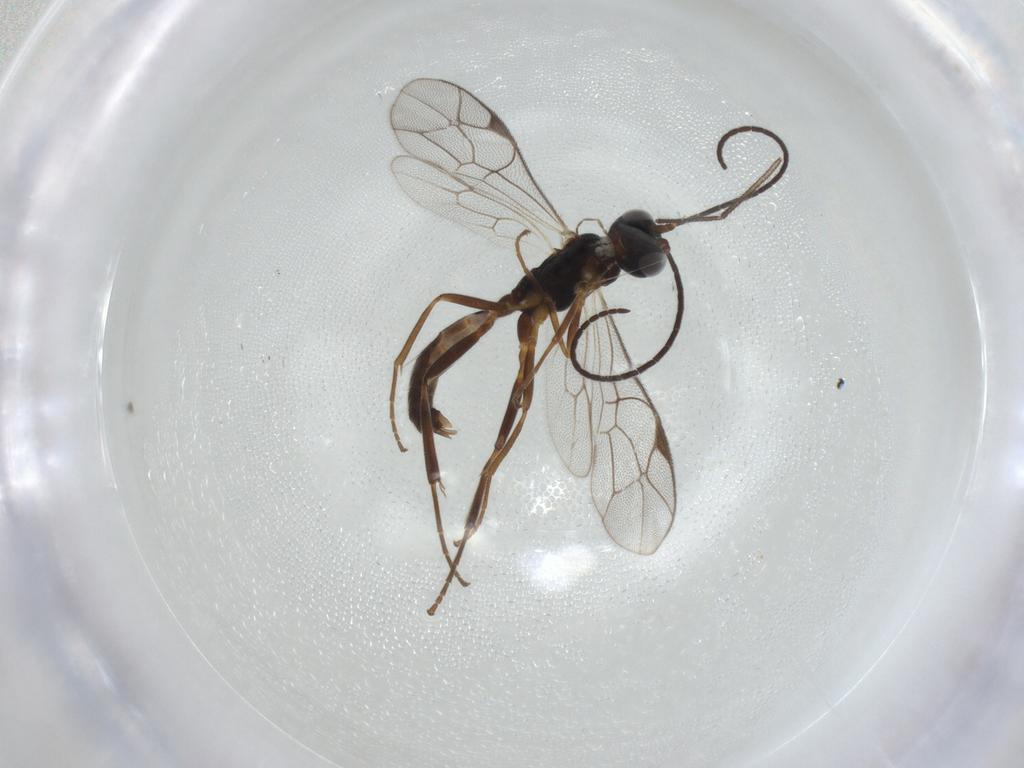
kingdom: Animalia
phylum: Arthropoda
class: Insecta
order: Hymenoptera
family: Ichneumonidae
